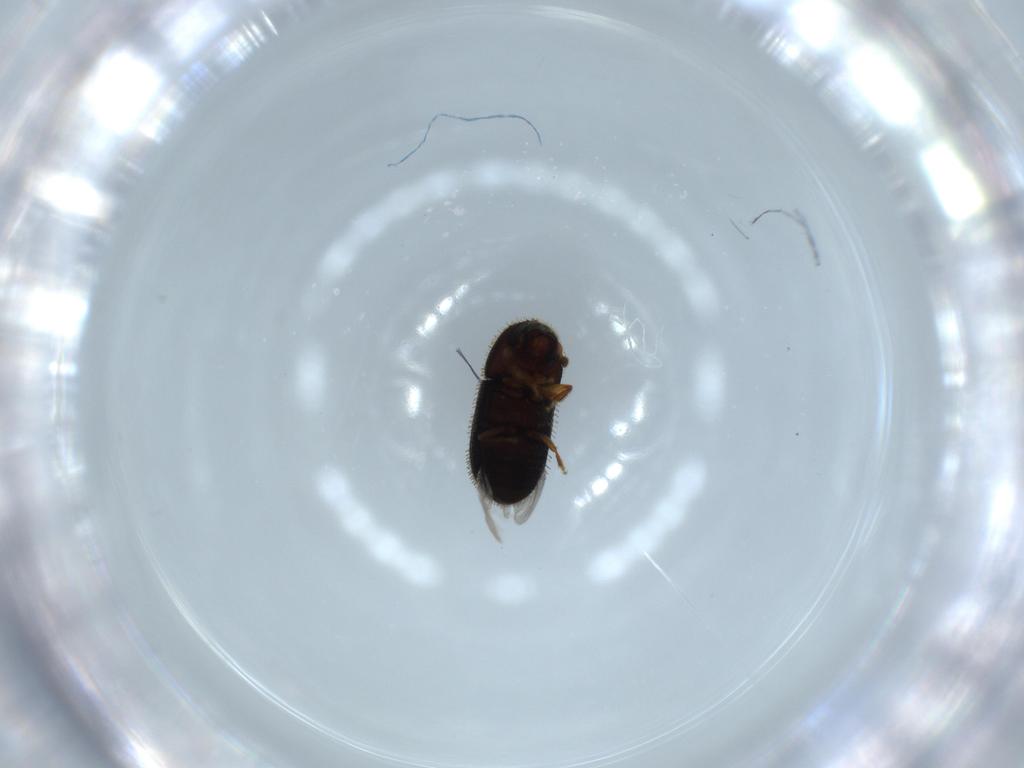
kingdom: Animalia
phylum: Arthropoda
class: Insecta
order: Coleoptera
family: Curculionidae
